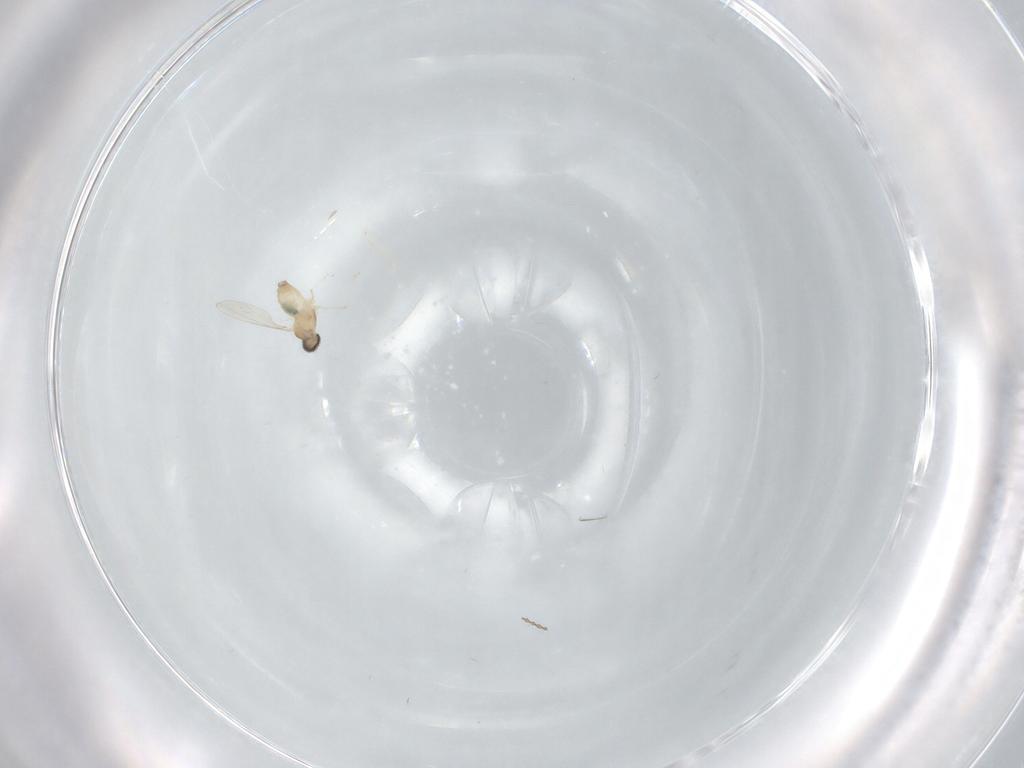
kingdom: Animalia
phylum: Arthropoda
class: Insecta
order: Diptera
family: Cecidomyiidae
